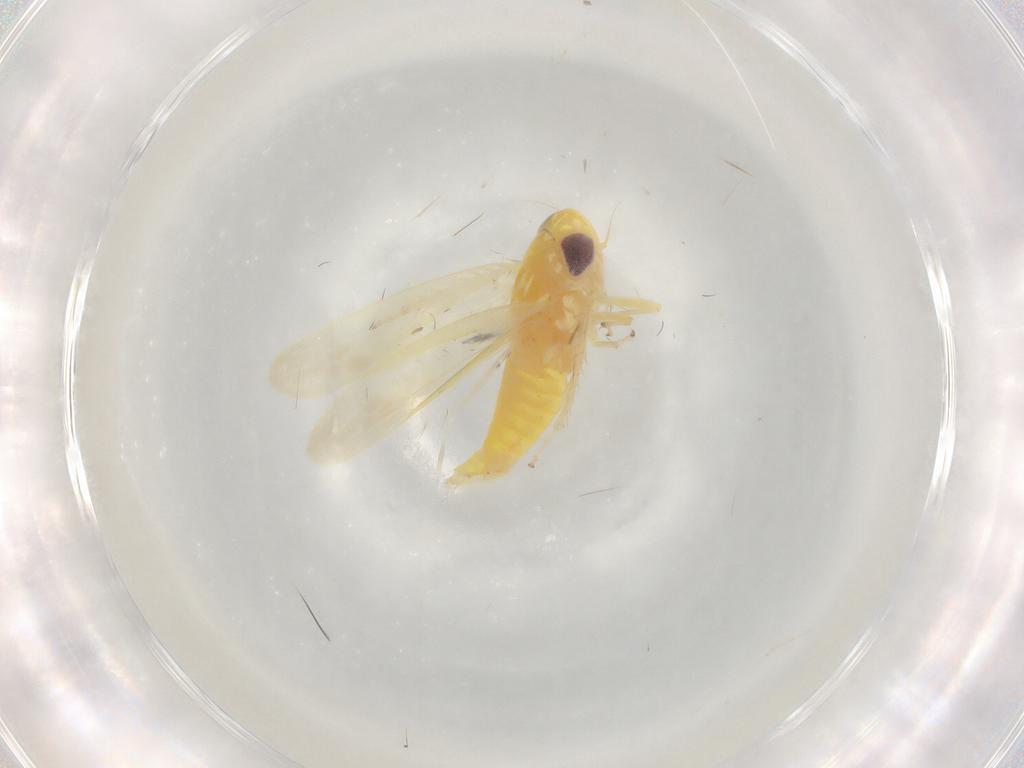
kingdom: Animalia
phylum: Arthropoda
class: Insecta
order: Hemiptera
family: Cicadellidae
